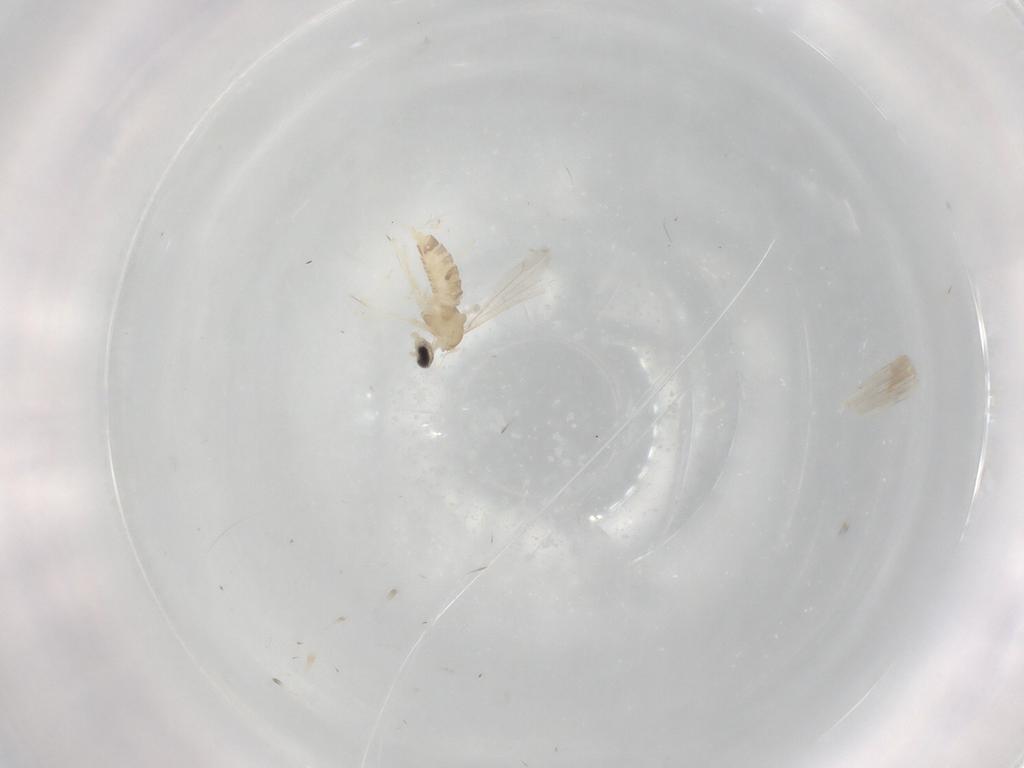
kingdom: Animalia
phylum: Arthropoda
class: Insecta
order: Diptera
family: Cecidomyiidae
